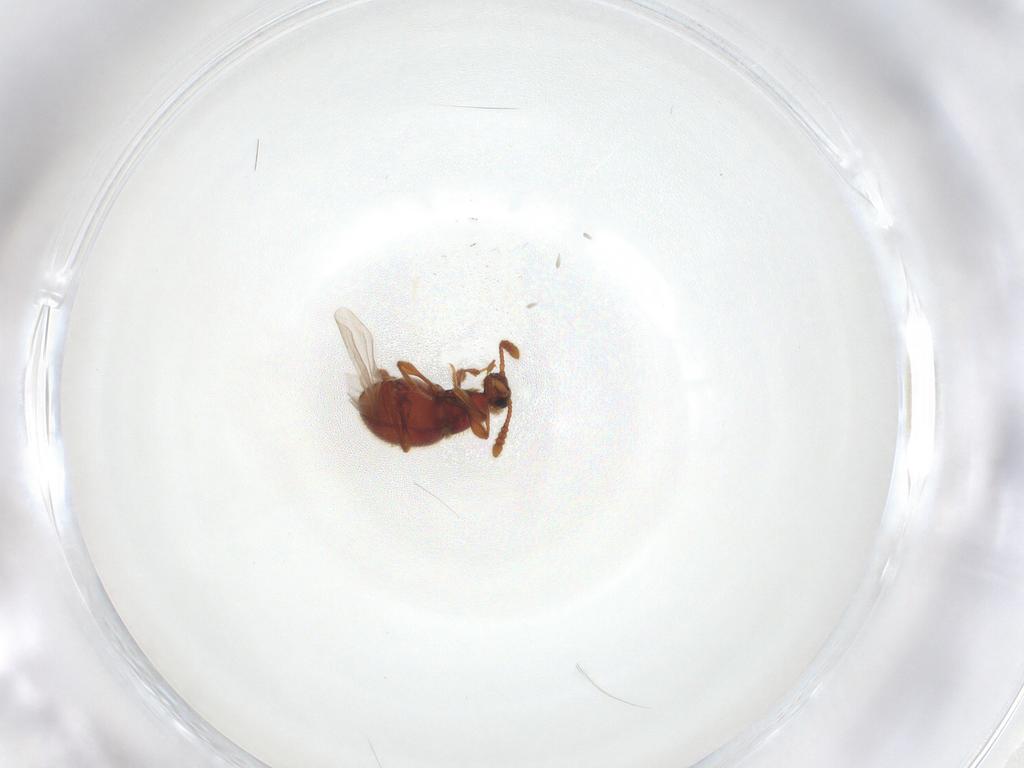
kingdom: Animalia
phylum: Arthropoda
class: Insecta
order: Coleoptera
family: Staphylinidae
